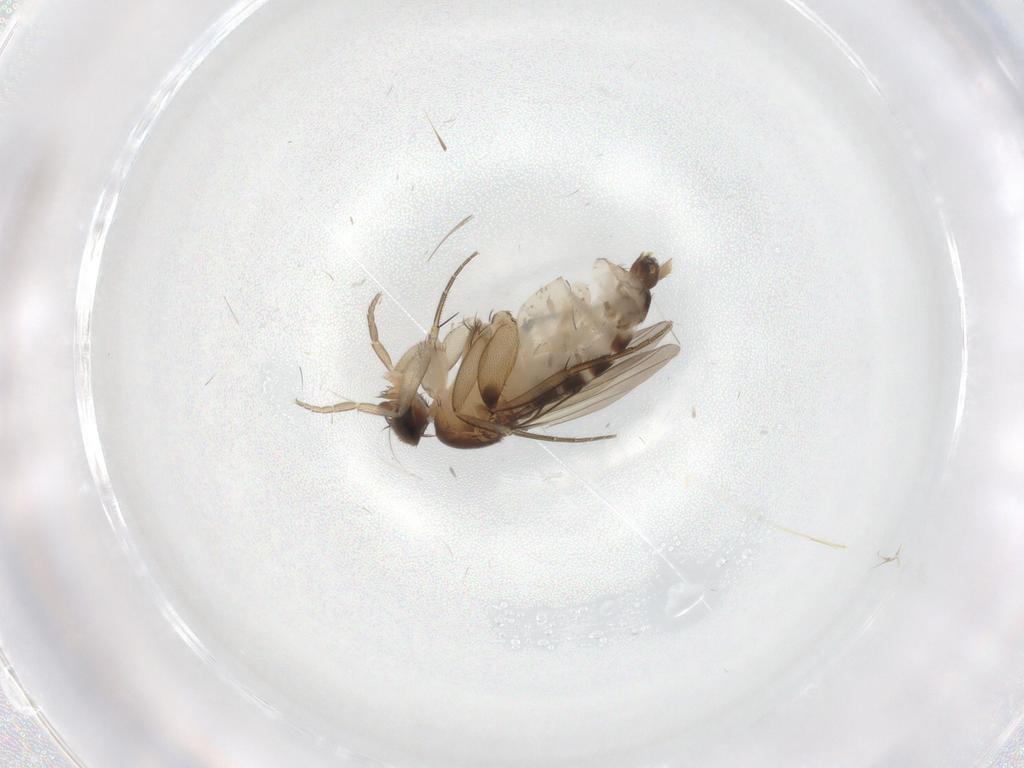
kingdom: Animalia
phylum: Arthropoda
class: Insecta
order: Diptera
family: Phoridae
